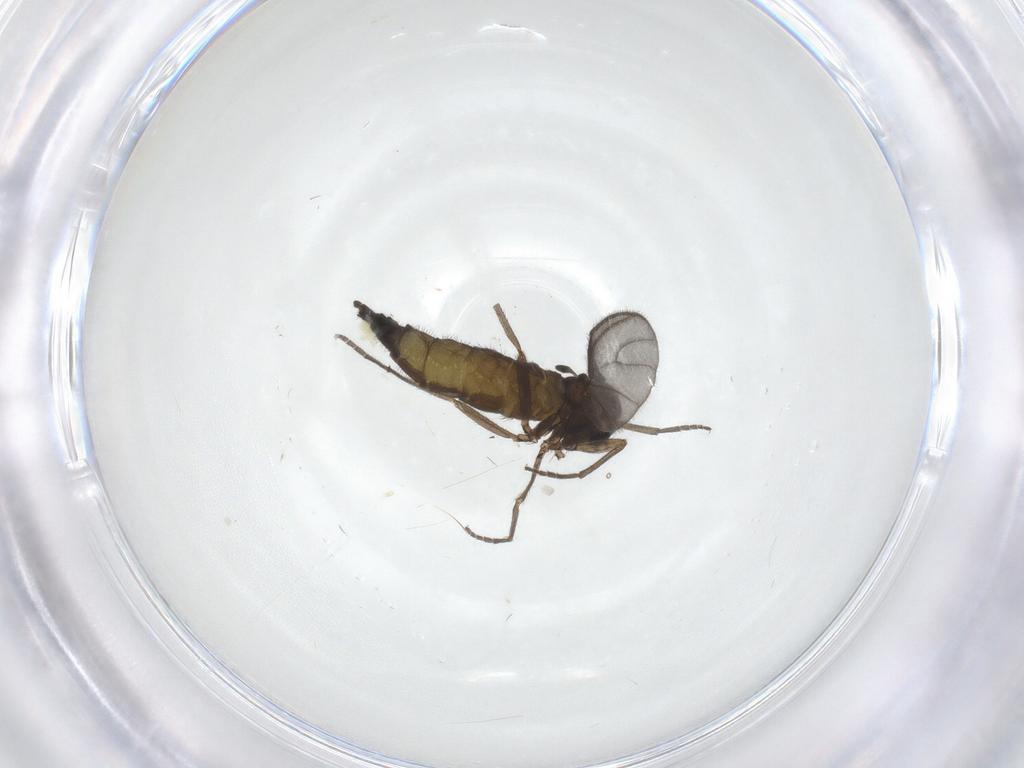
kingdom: Animalia
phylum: Arthropoda
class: Insecta
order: Diptera
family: Sciaridae
